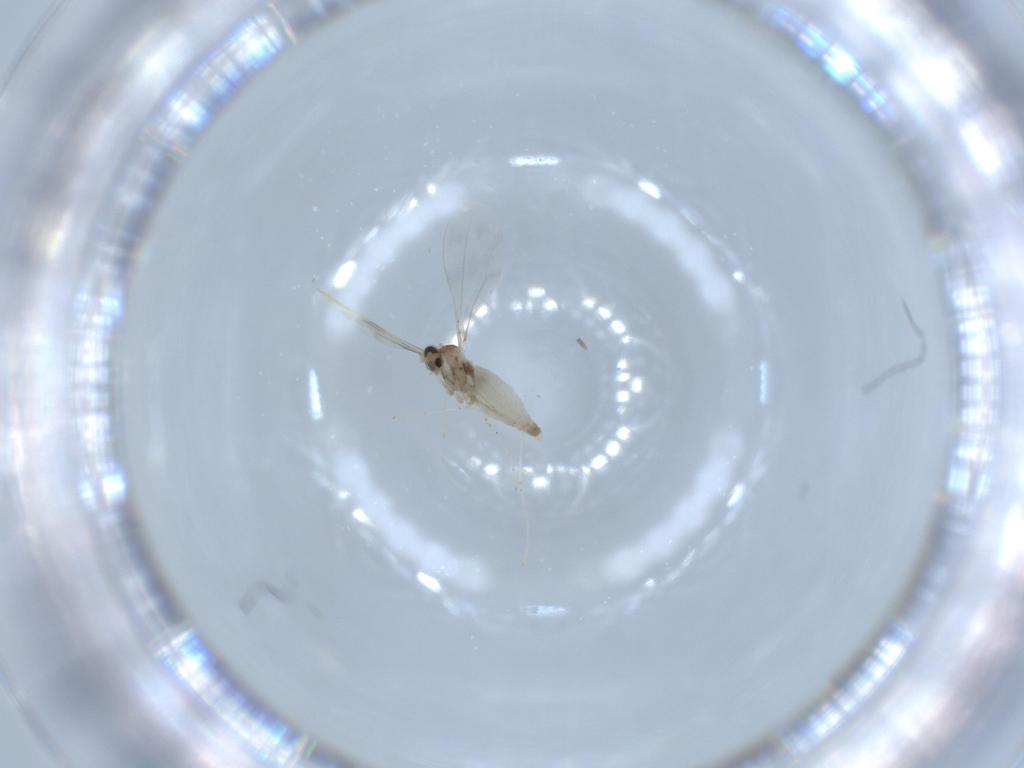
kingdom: Animalia
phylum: Arthropoda
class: Insecta
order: Diptera
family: Cecidomyiidae
